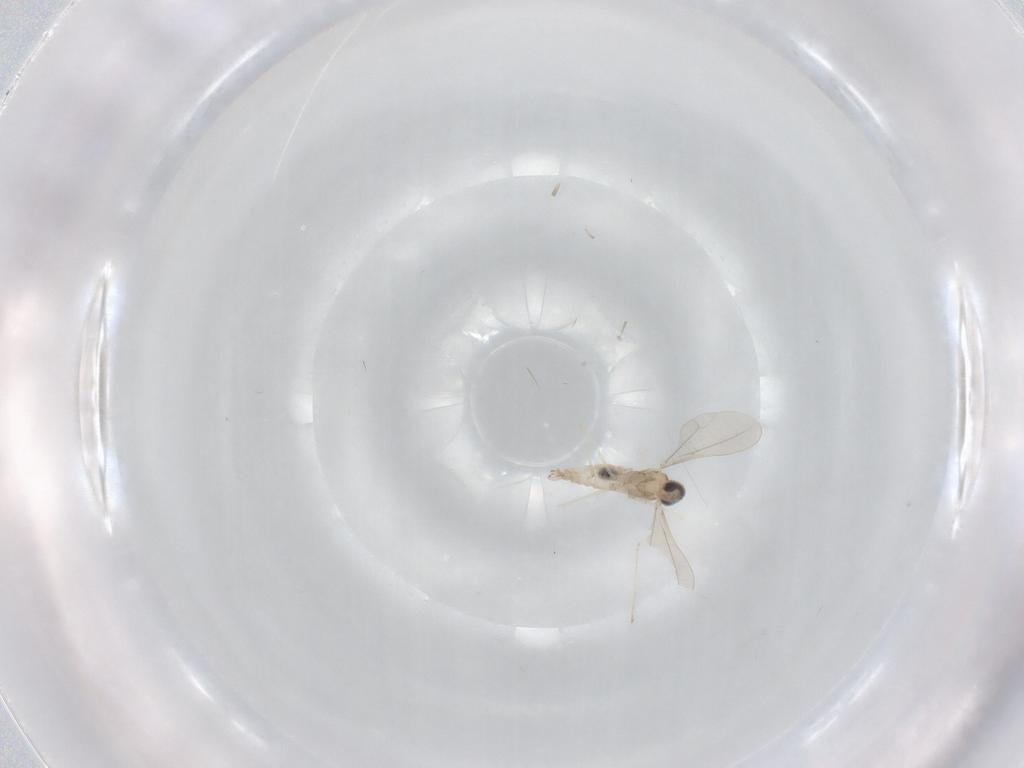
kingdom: Animalia
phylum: Arthropoda
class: Insecta
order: Diptera
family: Cecidomyiidae
